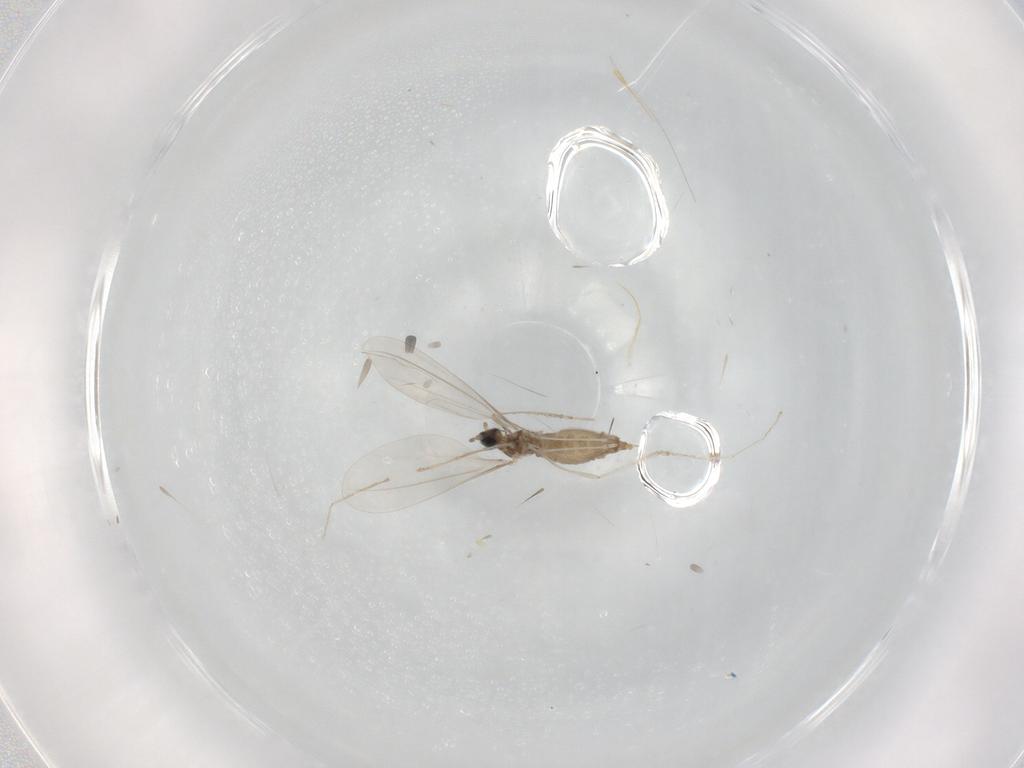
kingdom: Animalia
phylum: Arthropoda
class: Insecta
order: Diptera
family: Cecidomyiidae
